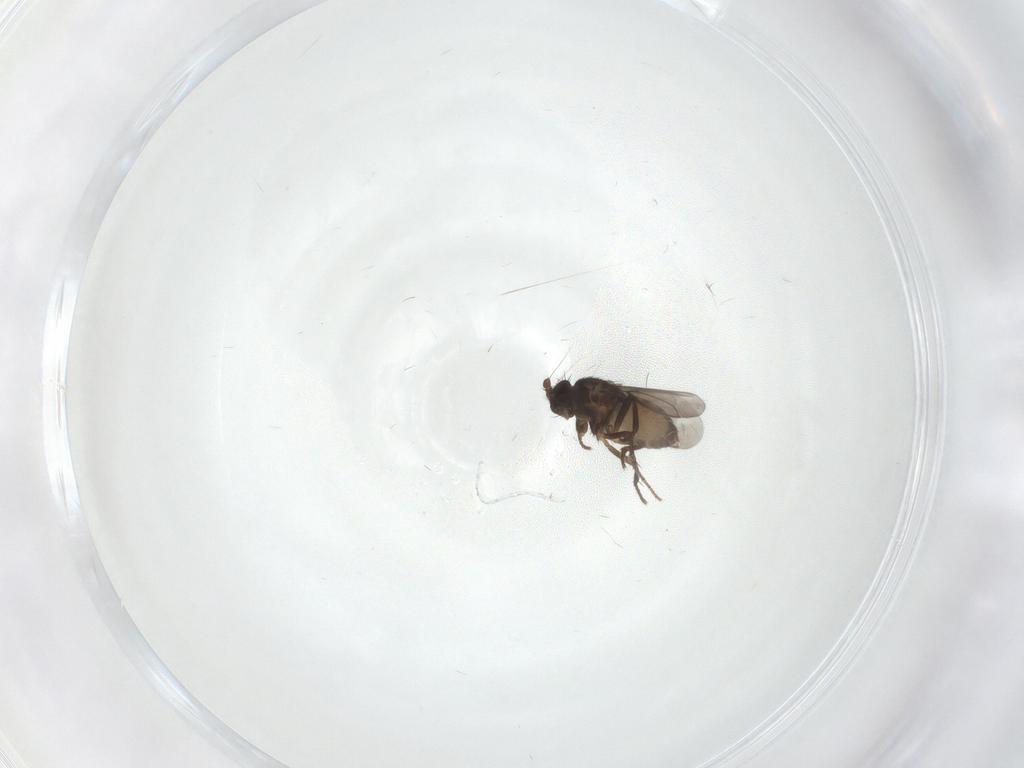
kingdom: Animalia
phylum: Arthropoda
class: Insecta
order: Diptera
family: Sphaeroceridae
